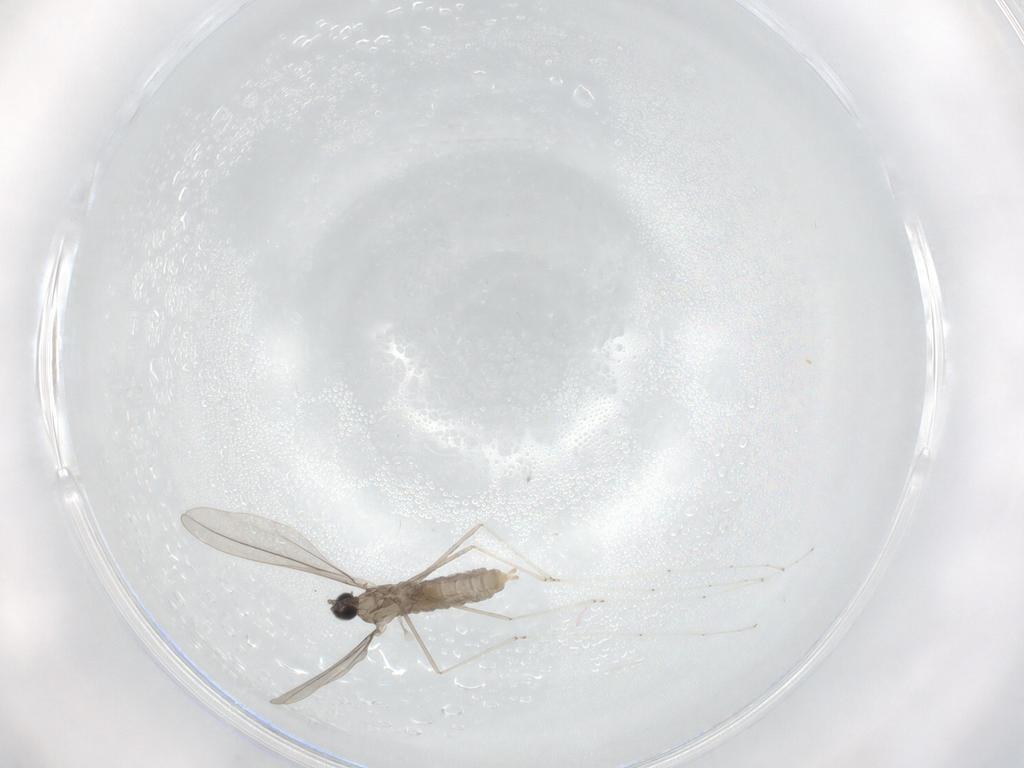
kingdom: Animalia
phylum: Arthropoda
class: Insecta
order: Diptera
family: Cecidomyiidae
